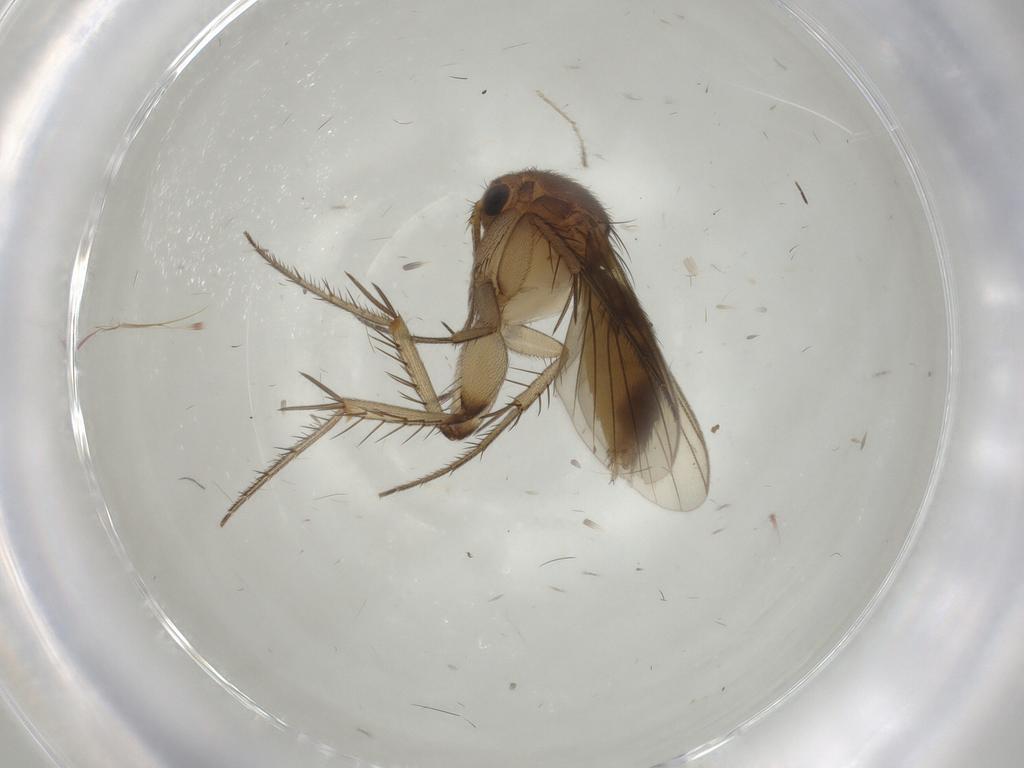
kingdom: Animalia
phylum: Arthropoda
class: Insecta
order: Diptera
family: Mycetophilidae
